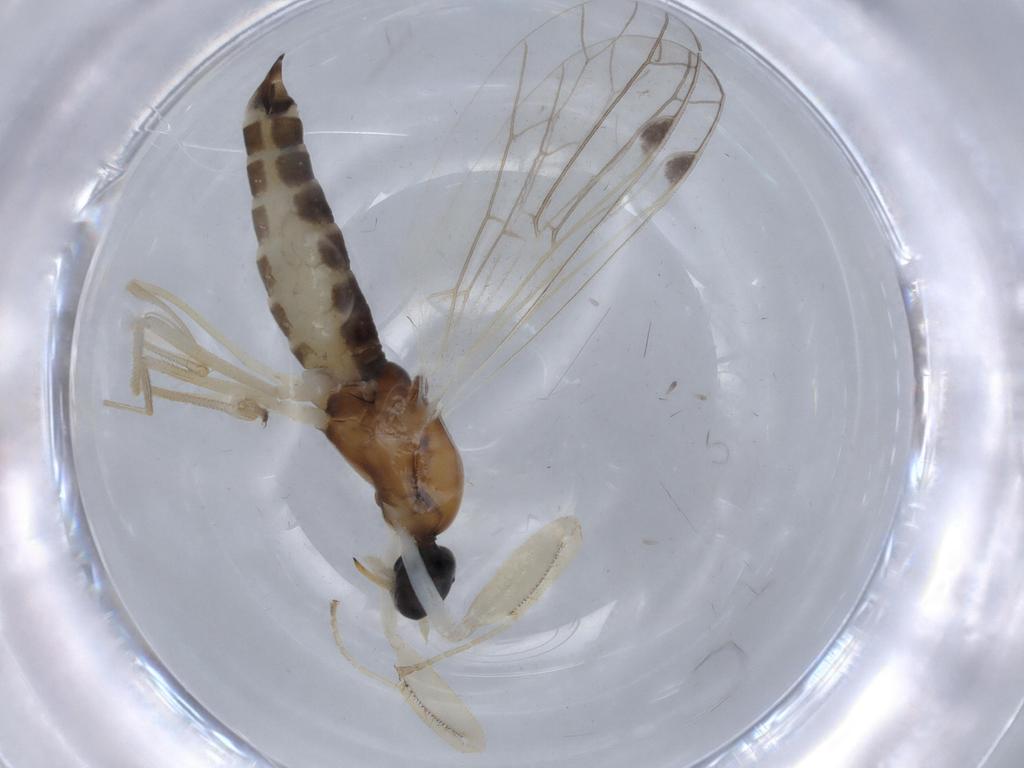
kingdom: Animalia
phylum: Arthropoda
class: Insecta
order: Diptera
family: Empididae
